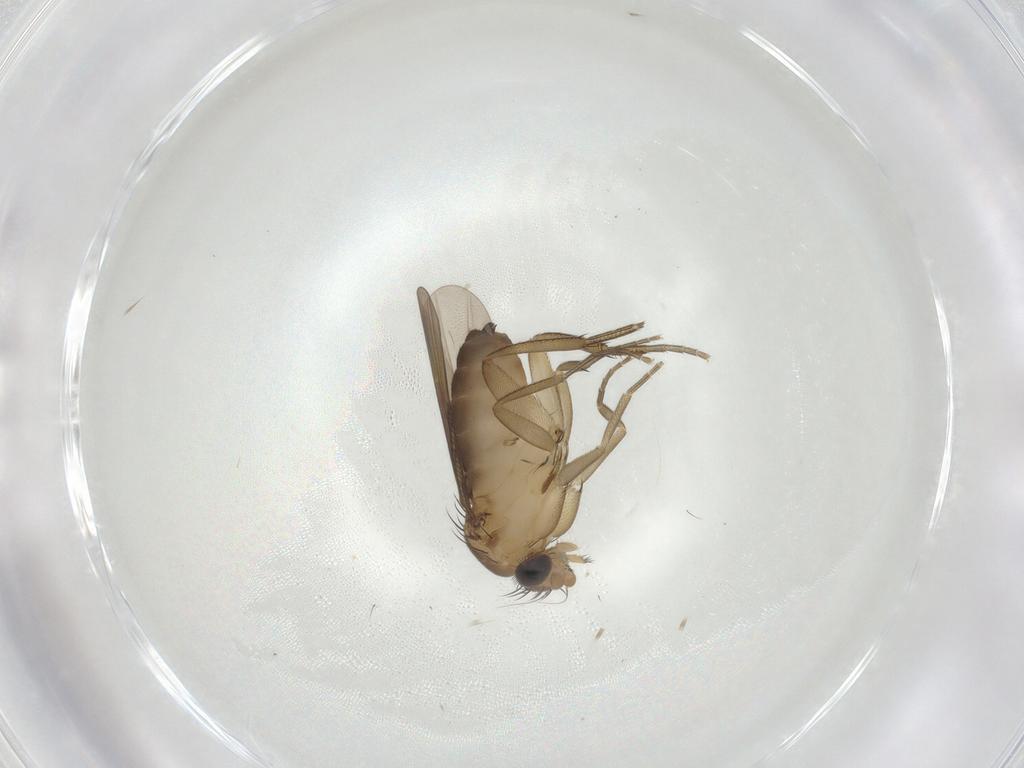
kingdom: Animalia
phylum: Arthropoda
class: Insecta
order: Diptera
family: Phoridae
